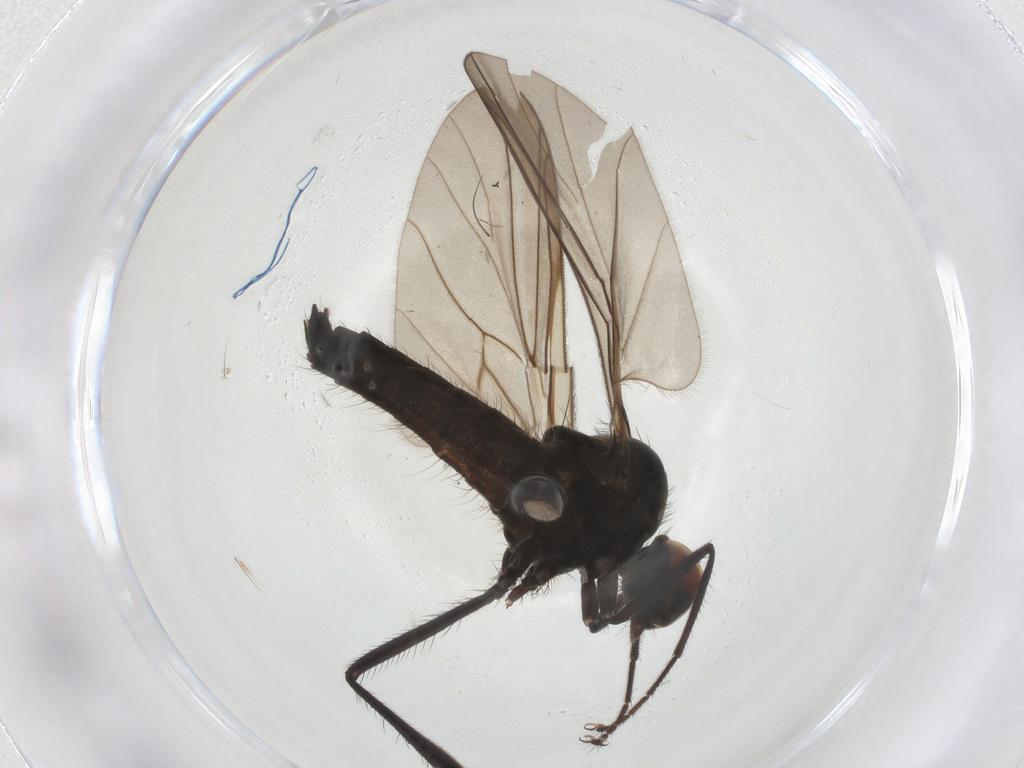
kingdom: Animalia
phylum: Arthropoda
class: Insecta
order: Diptera
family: Hybotidae
